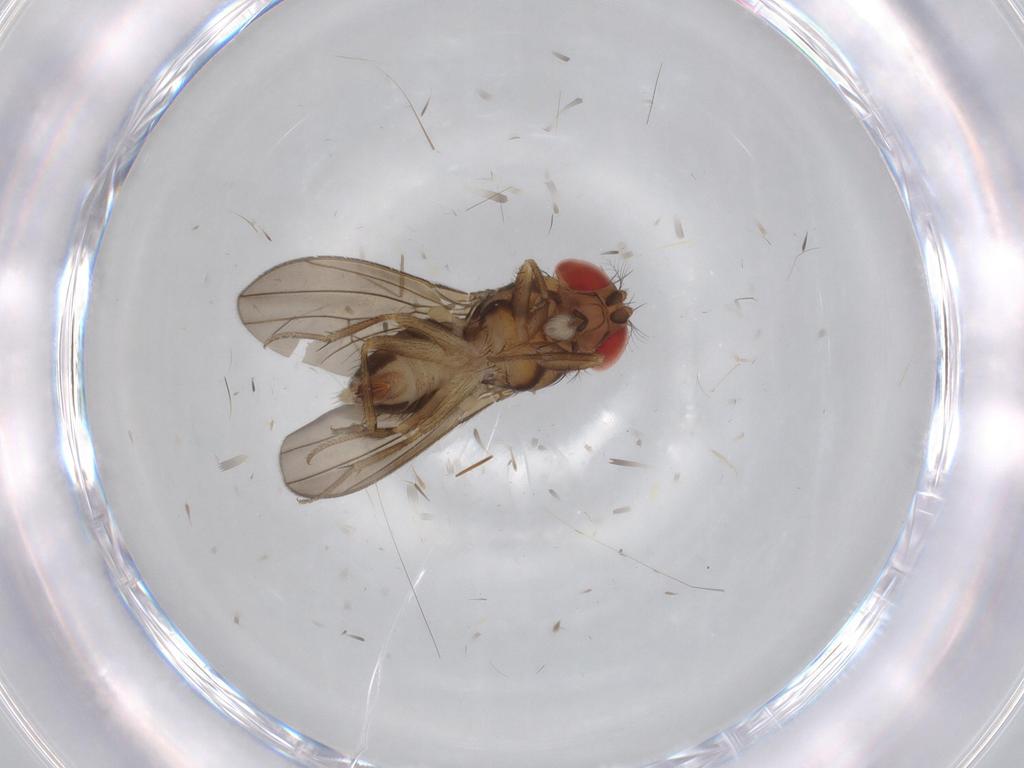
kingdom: Animalia
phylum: Arthropoda
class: Insecta
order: Diptera
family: Drosophilidae
